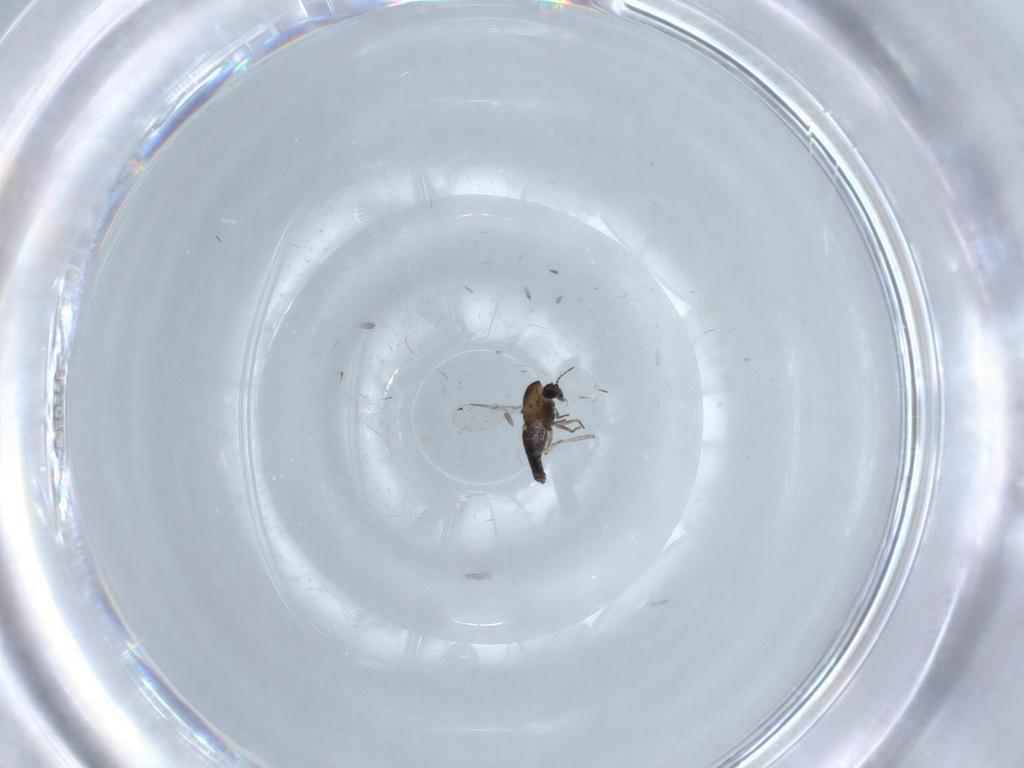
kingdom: Animalia
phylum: Arthropoda
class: Insecta
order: Diptera
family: Chironomidae
